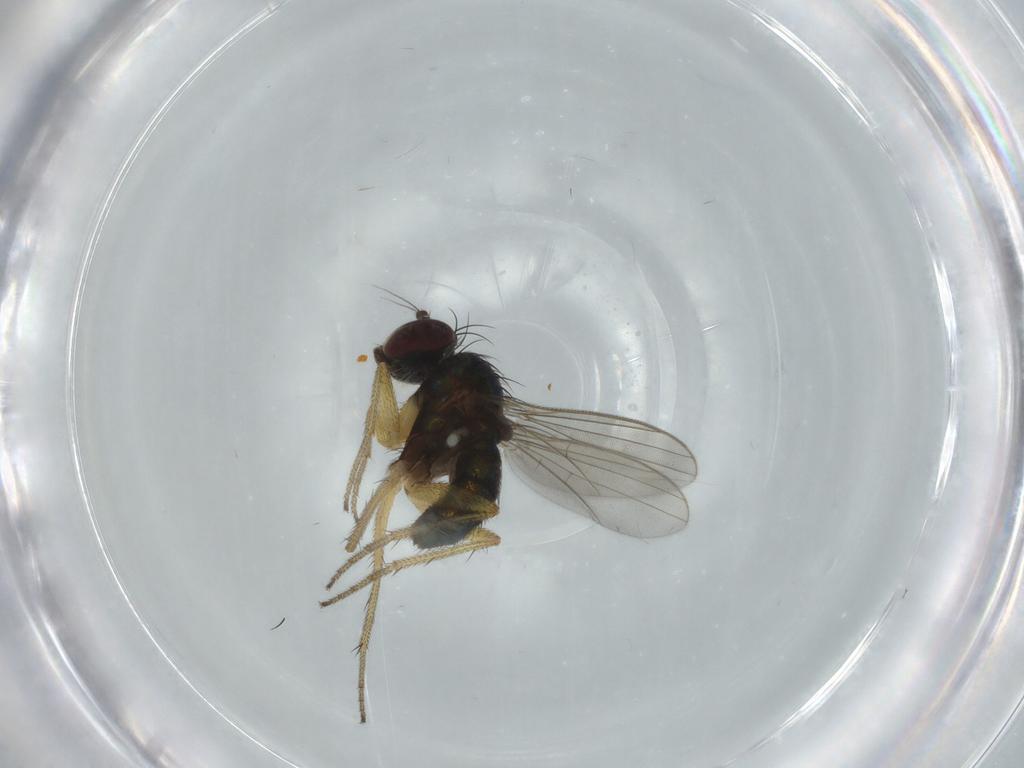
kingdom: Animalia
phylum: Arthropoda
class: Insecta
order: Diptera
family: Dolichopodidae
